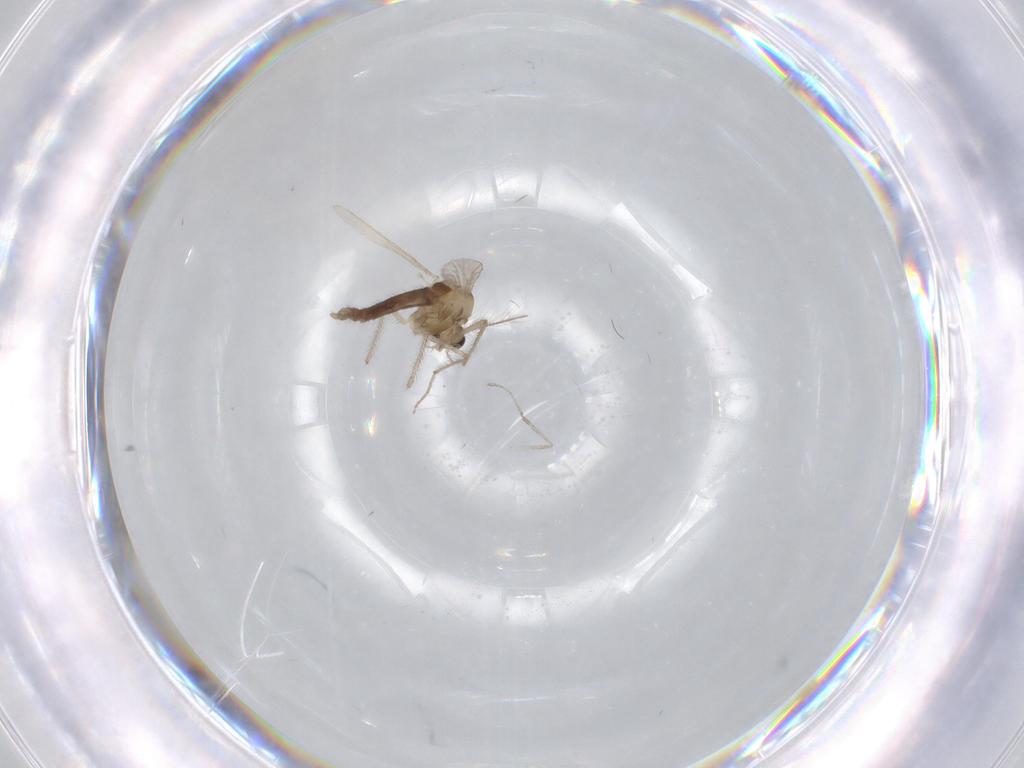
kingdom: Animalia
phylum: Arthropoda
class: Insecta
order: Diptera
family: Chironomidae
